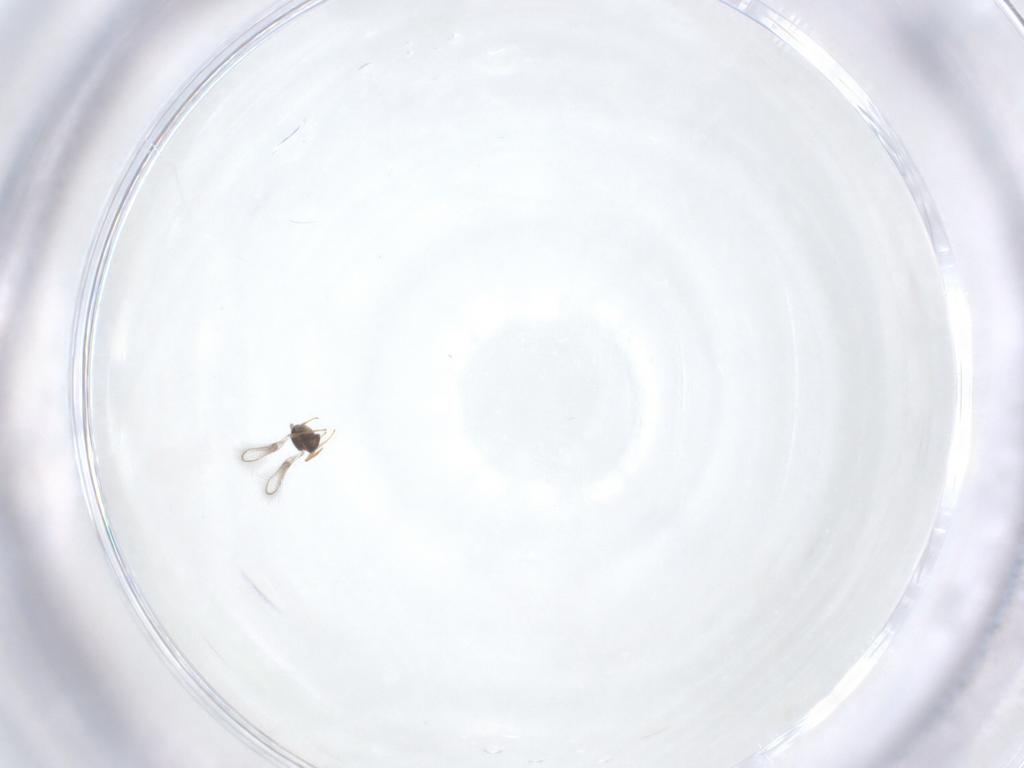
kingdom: Animalia
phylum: Arthropoda
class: Insecta
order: Hymenoptera
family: Mymaridae
